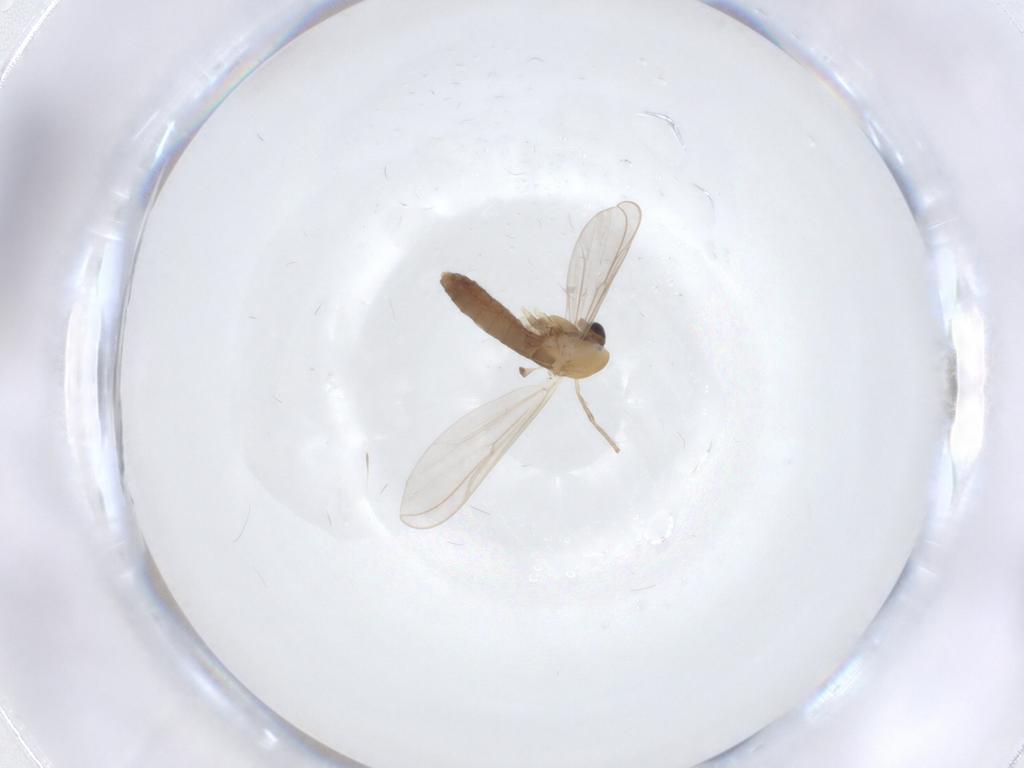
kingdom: Animalia
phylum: Arthropoda
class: Insecta
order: Diptera
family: Chironomidae
